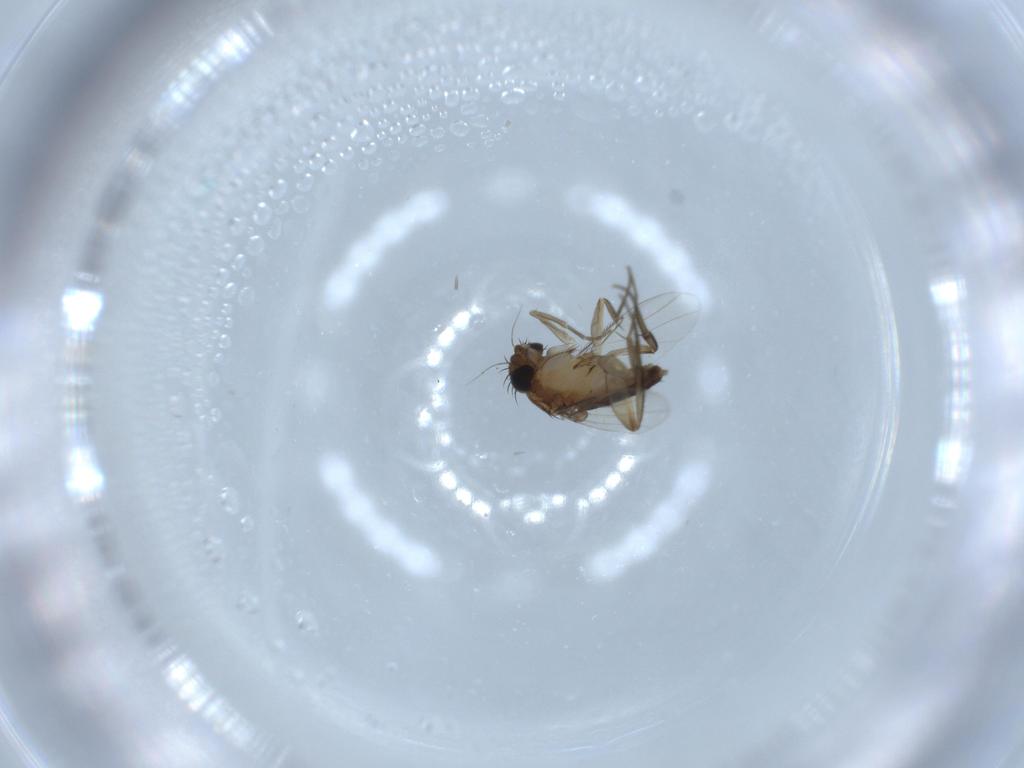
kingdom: Animalia
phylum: Arthropoda
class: Insecta
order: Diptera
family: Phoridae
